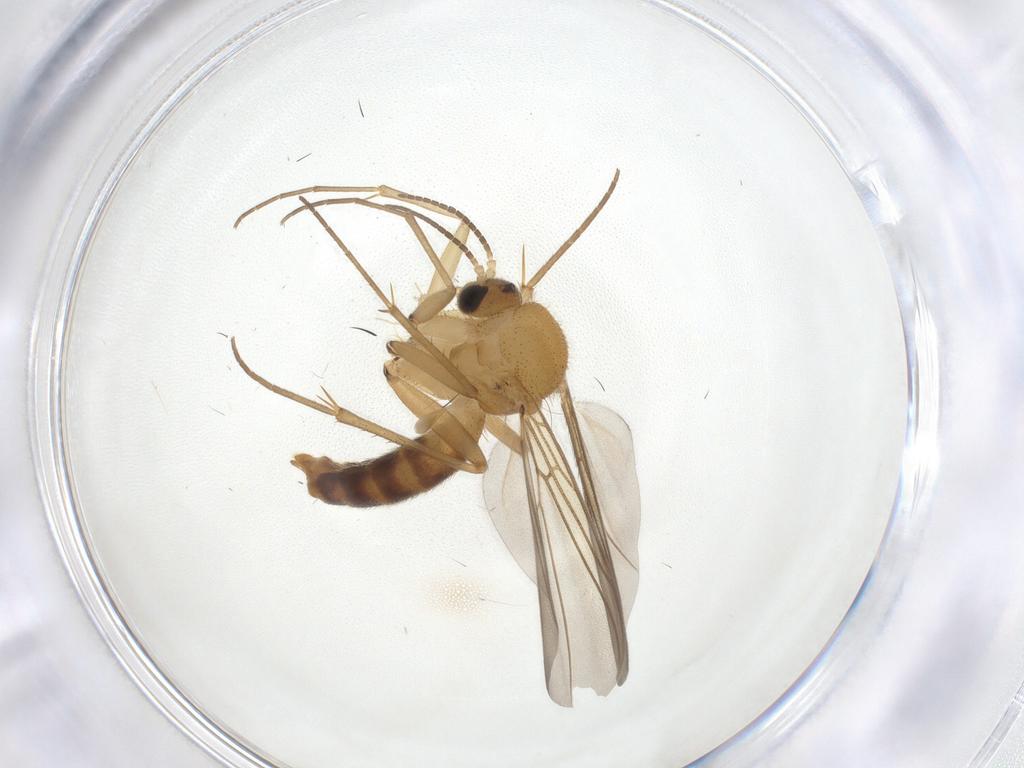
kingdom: Animalia
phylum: Arthropoda
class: Insecta
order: Diptera
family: Mycetophilidae
